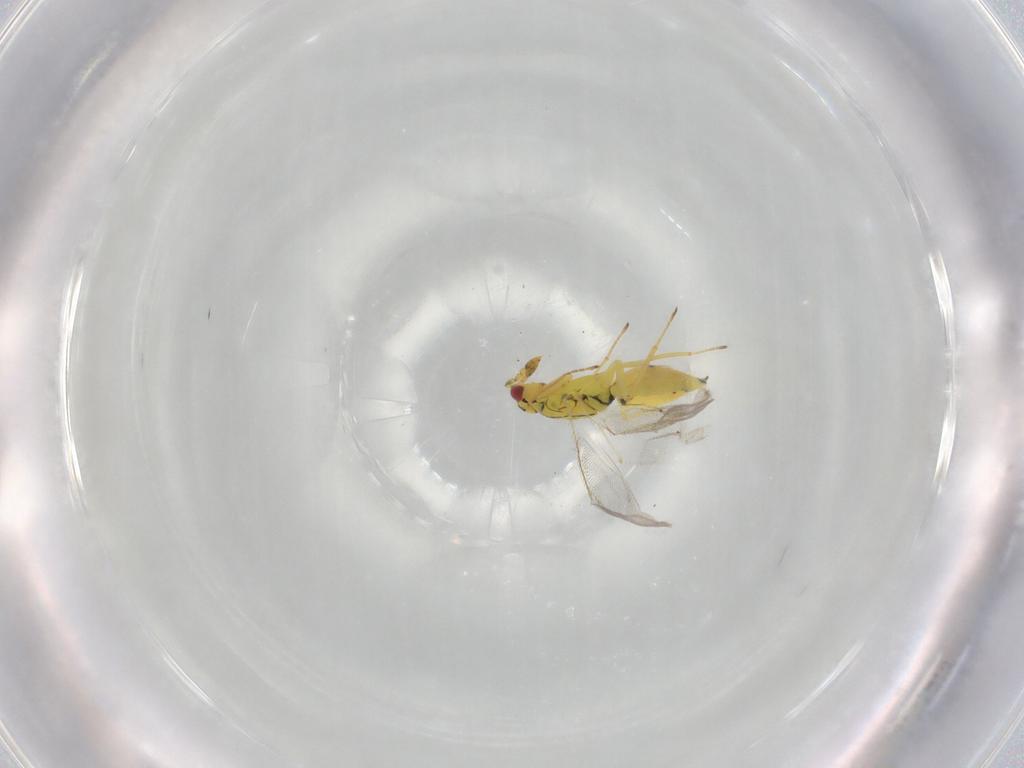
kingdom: Animalia
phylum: Arthropoda
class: Insecta
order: Hymenoptera
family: Eulophidae
